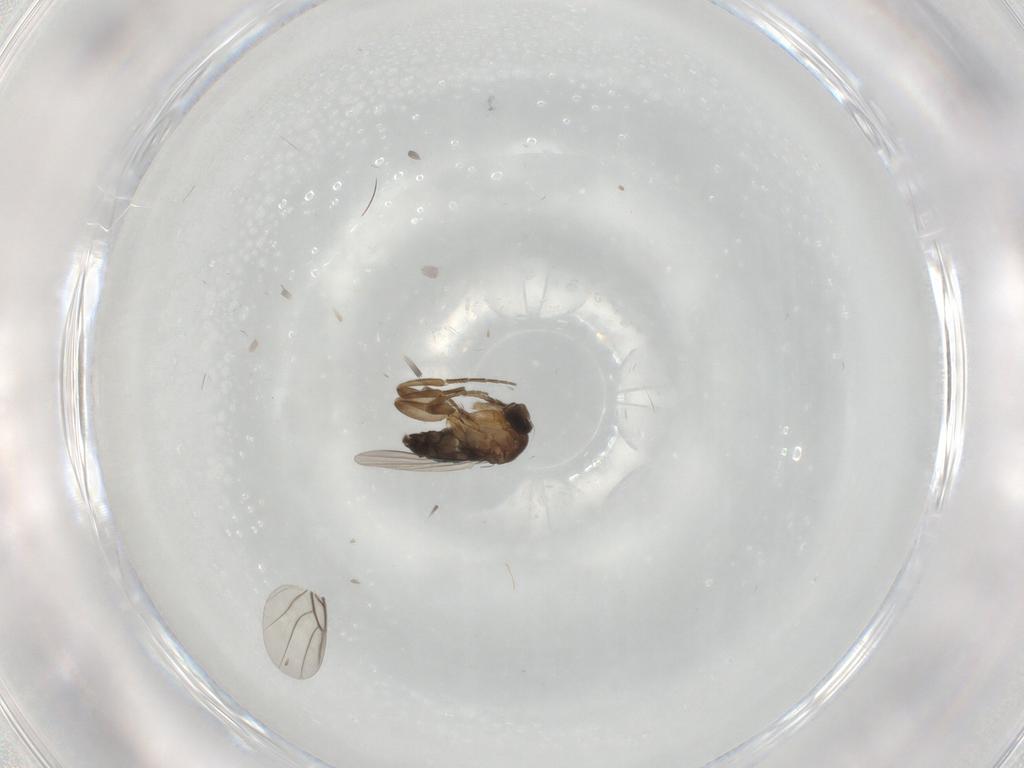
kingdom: Animalia
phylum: Arthropoda
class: Insecta
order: Diptera
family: Phoridae
